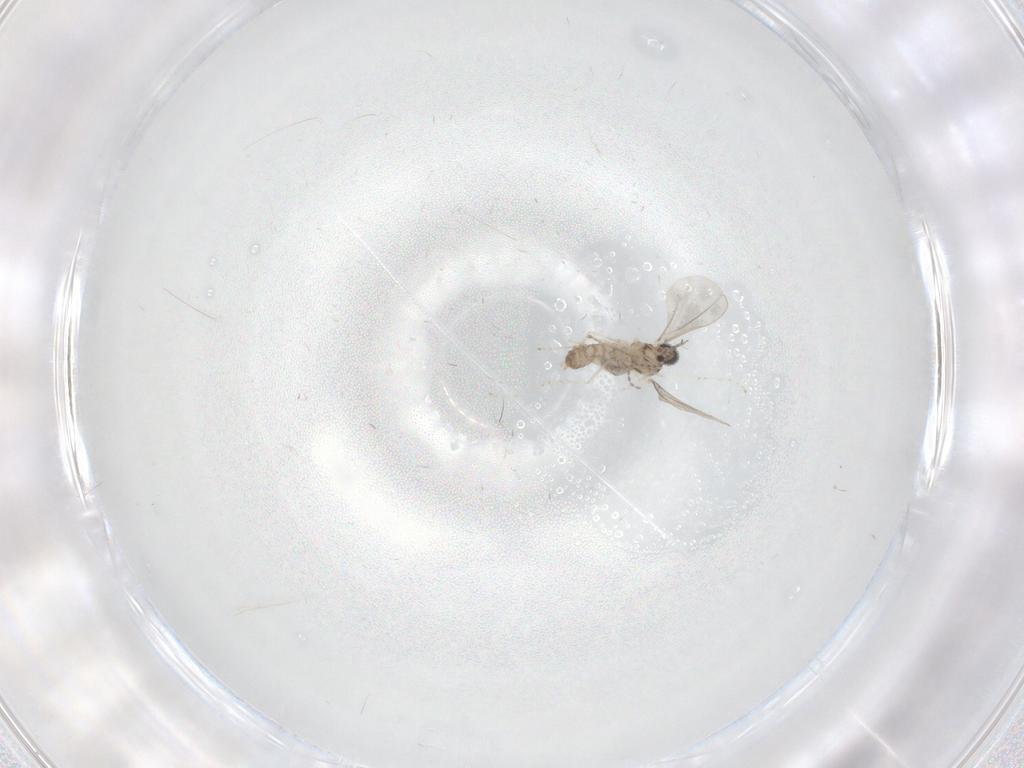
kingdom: Animalia
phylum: Arthropoda
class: Insecta
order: Diptera
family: Cecidomyiidae
